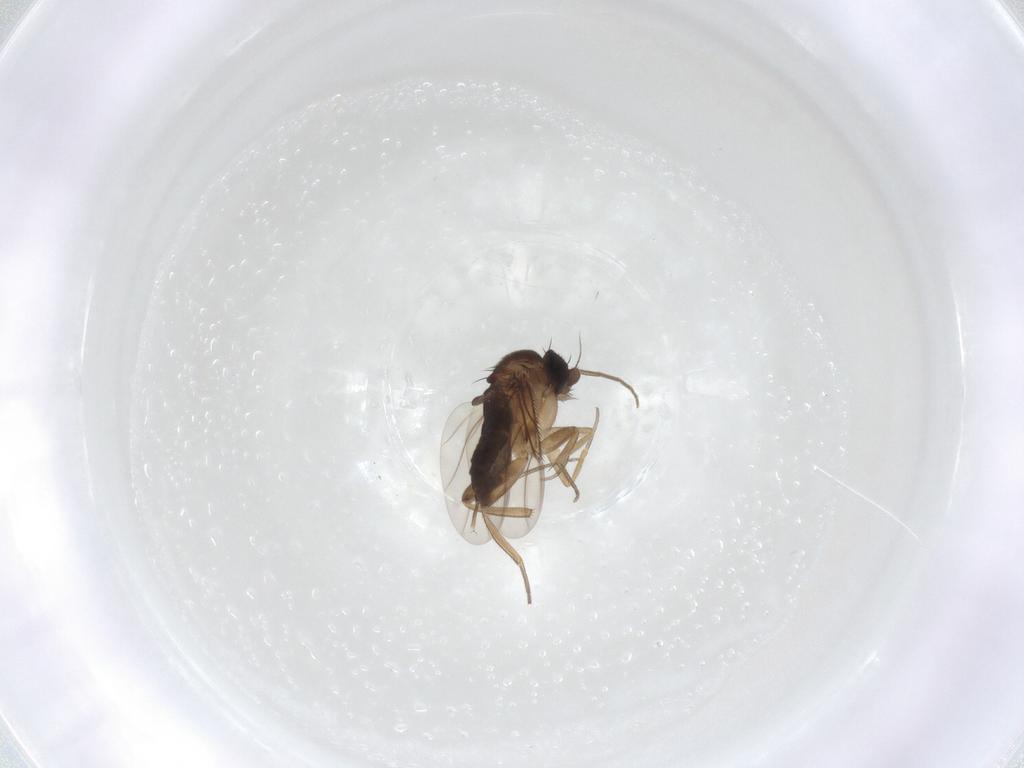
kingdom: Animalia
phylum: Arthropoda
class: Insecta
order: Diptera
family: Phoridae
